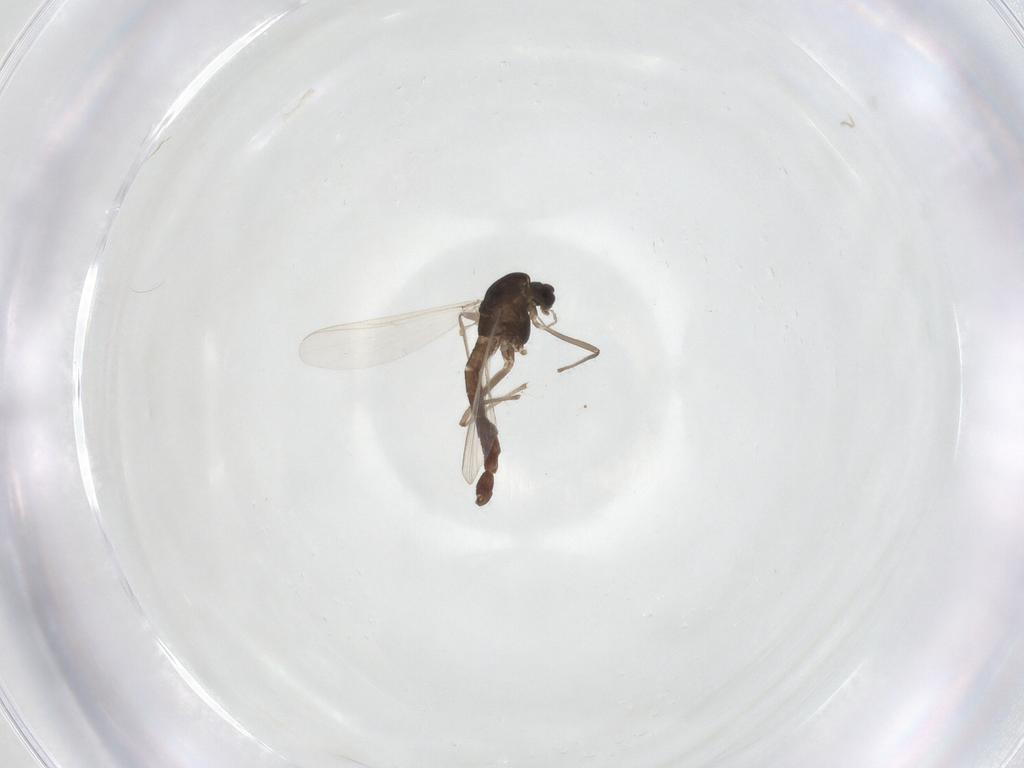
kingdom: Animalia
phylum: Arthropoda
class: Insecta
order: Diptera
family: Chironomidae
